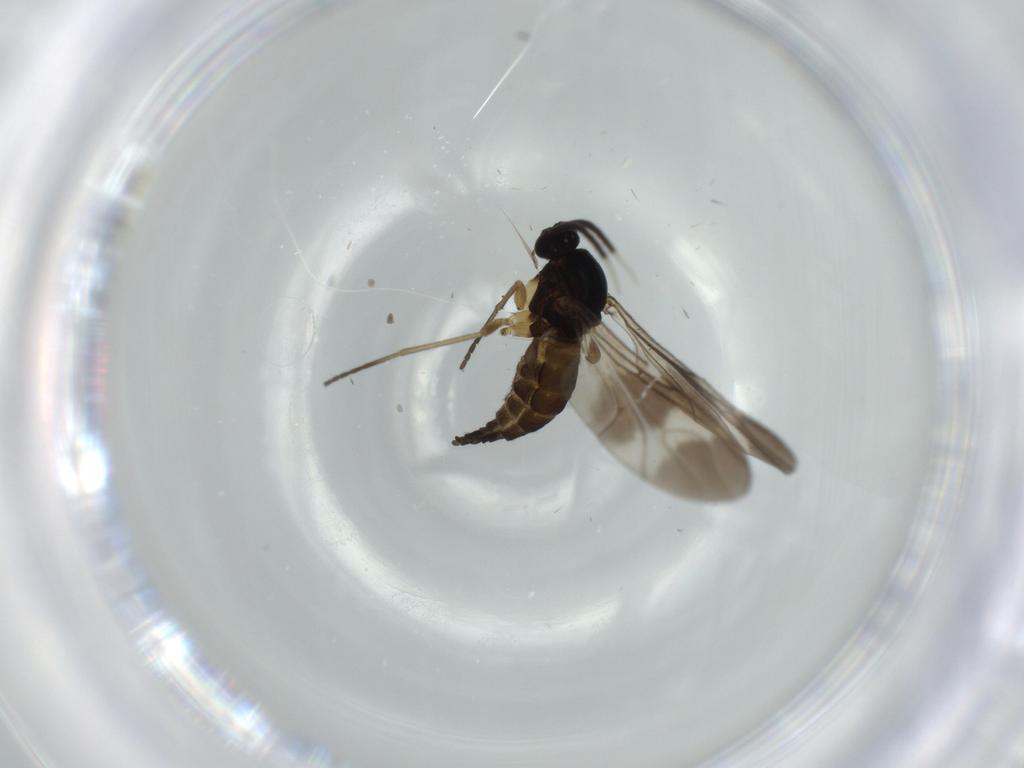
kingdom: Animalia
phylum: Arthropoda
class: Insecta
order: Diptera
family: Sciaridae
